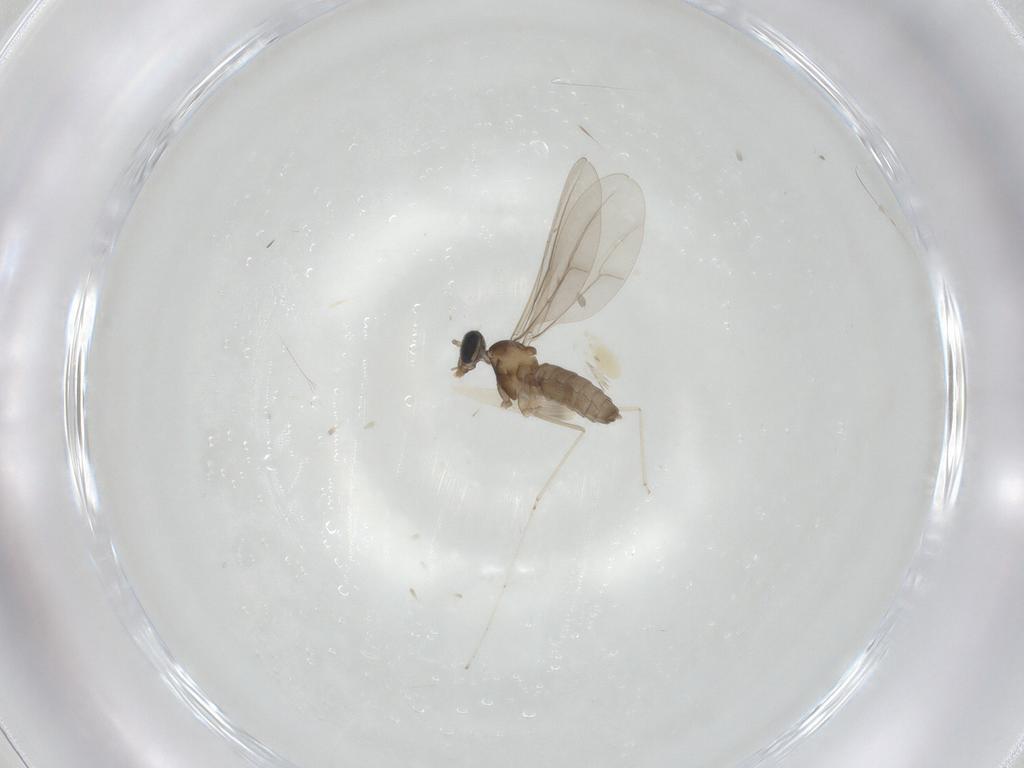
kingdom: Animalia
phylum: Arthropoda
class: Insecta
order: Diptera
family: Cecidomyiidae
